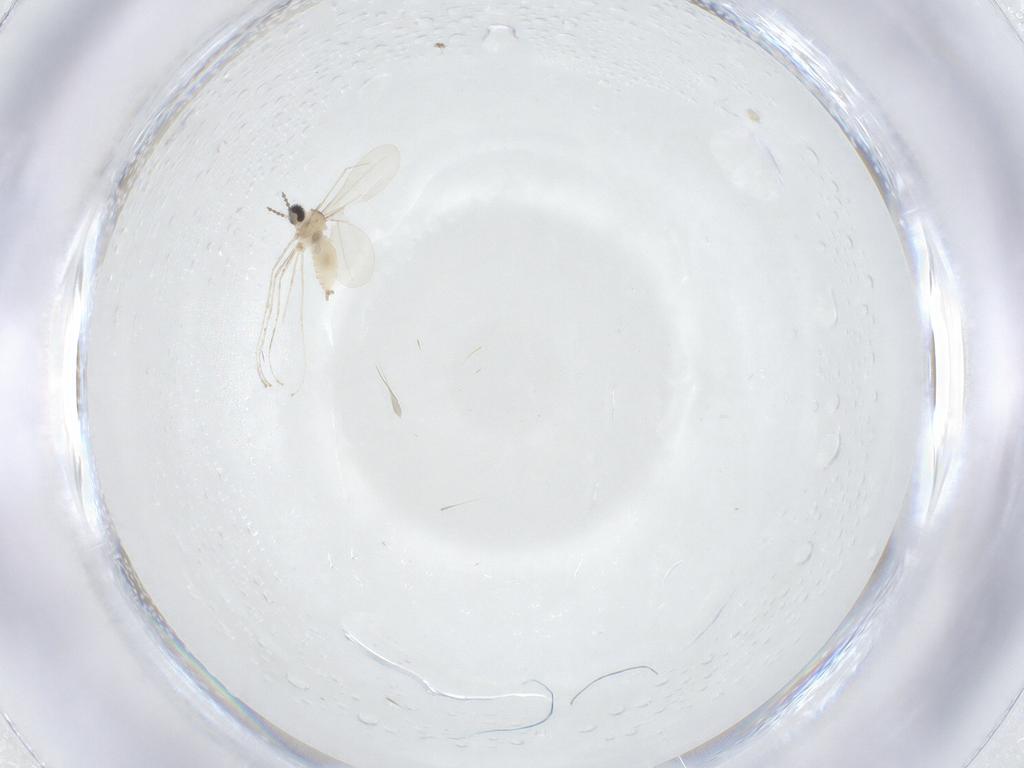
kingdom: Animalia
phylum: Arthropoda
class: Insecta
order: Diptera
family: Cecidomyiidae
